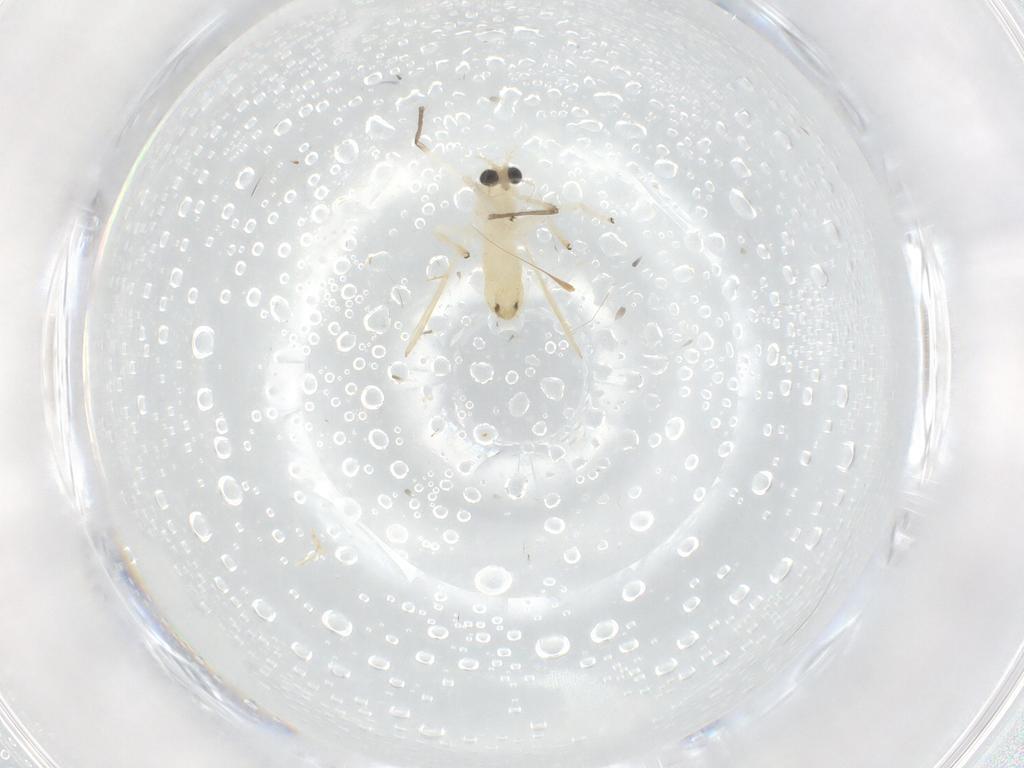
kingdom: Animalia
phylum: Arthropoda
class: Insecta
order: Diptera
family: Chironomidae
